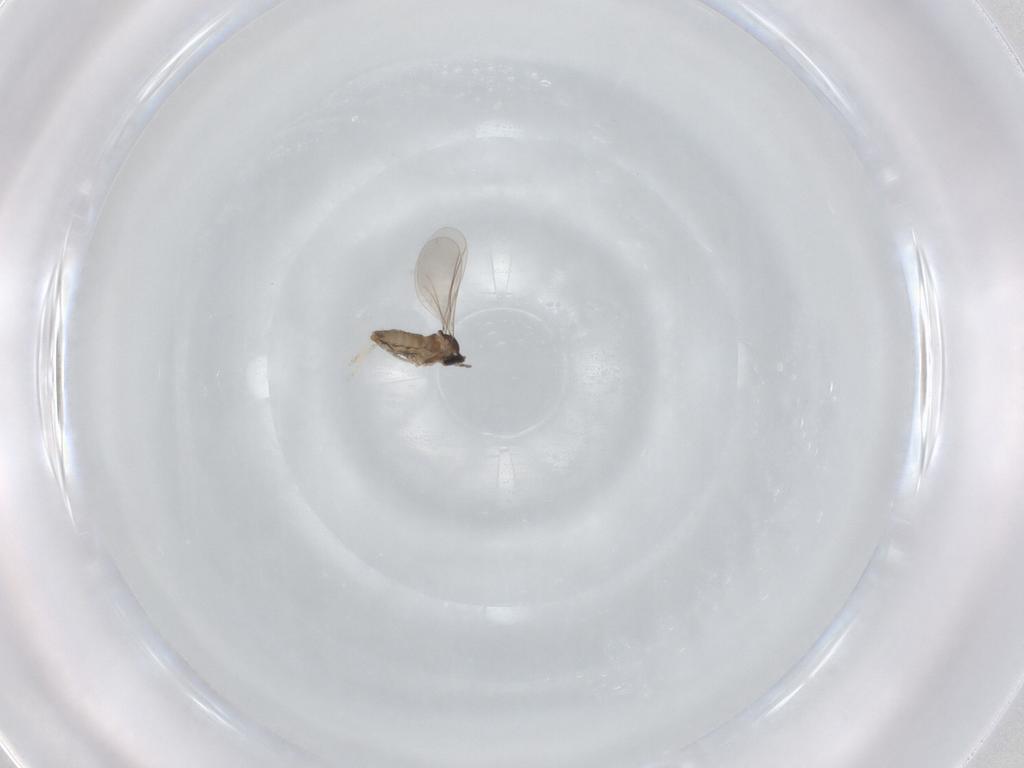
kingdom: Animalia
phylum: Arthropoda
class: Insecta
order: Diptera
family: Cecidomyiidae
